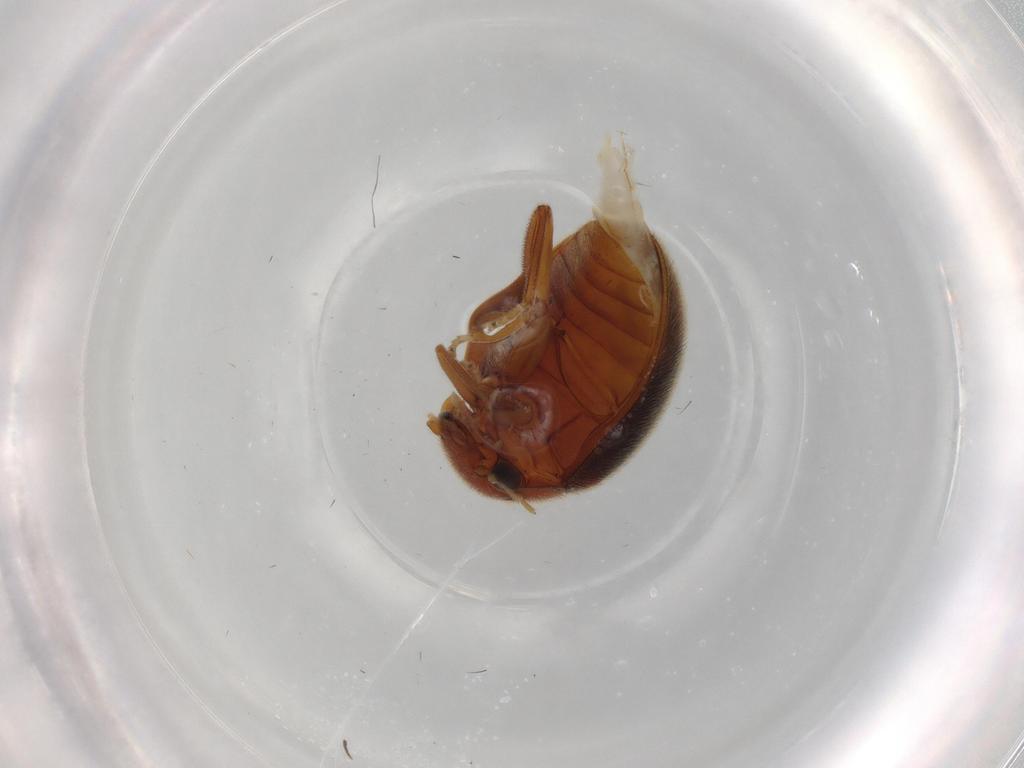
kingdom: Animalia
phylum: Arthropoda
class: Insecta
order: Coleoptera
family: Scirtidae
